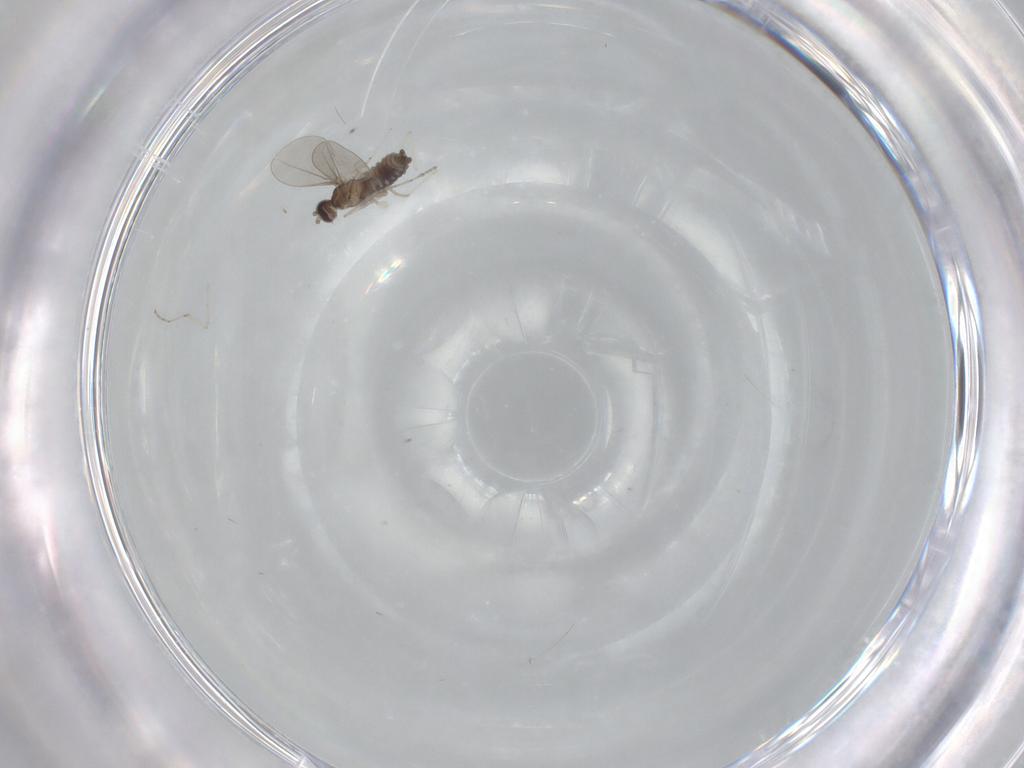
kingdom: Animalia
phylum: Arthropoda
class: Insecta
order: Diptera
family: Cecidomyiidae
